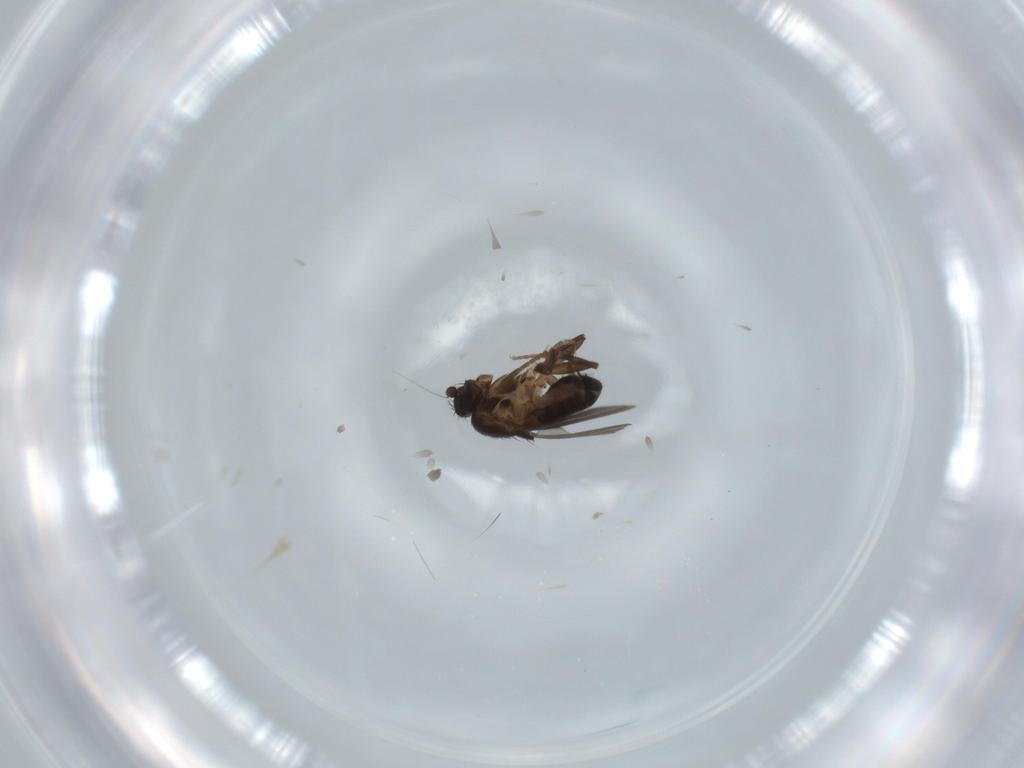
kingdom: Animalia
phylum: Arthropoda
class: Insecta
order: Diptera
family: Sphaeroceridae
